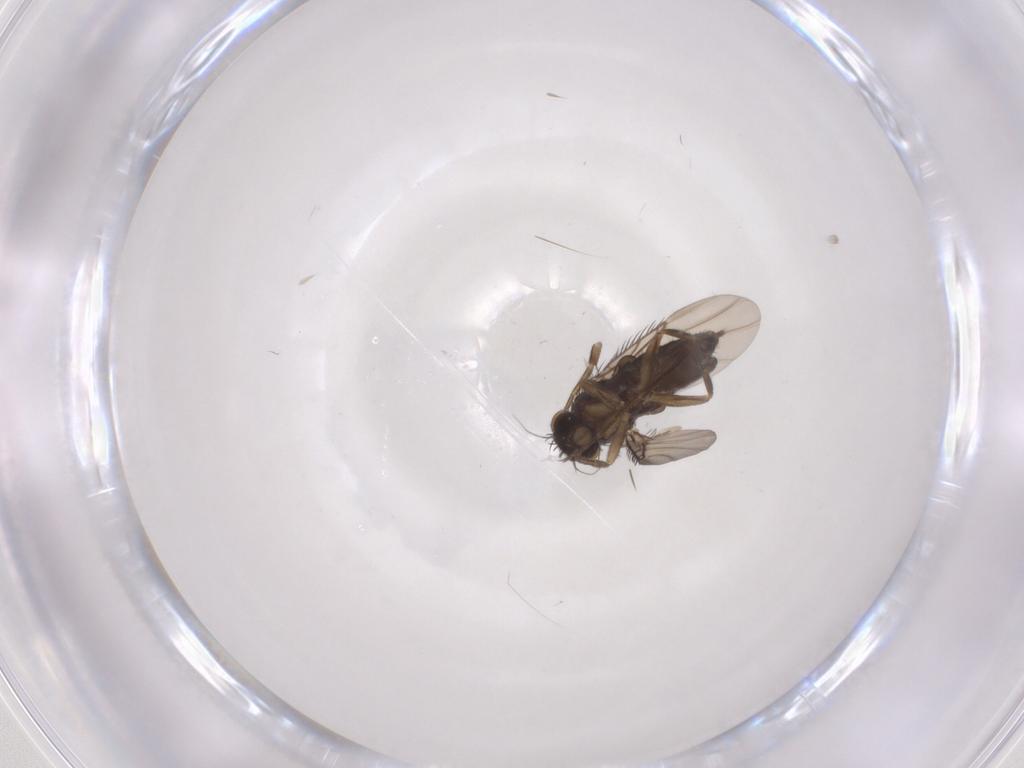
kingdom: Animalia
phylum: Arthropoda
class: Insecta
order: Diptera
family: Phoridae
